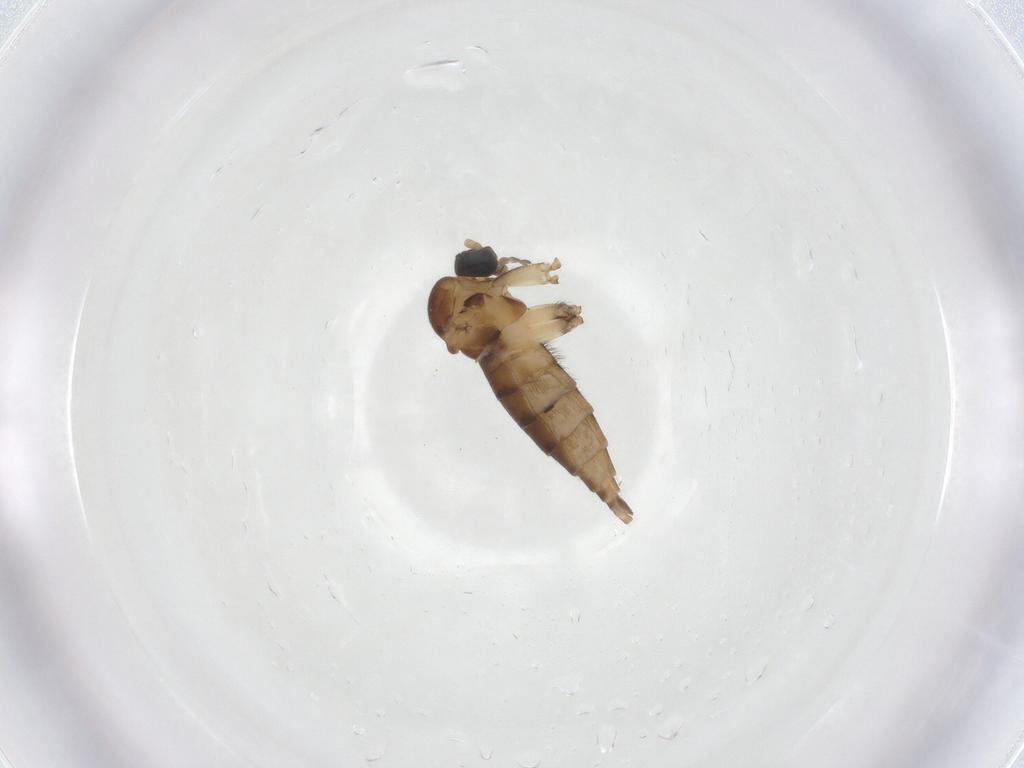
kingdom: Animalia
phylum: Arthropoda
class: Insecta
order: Diptera
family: Sciaridae
